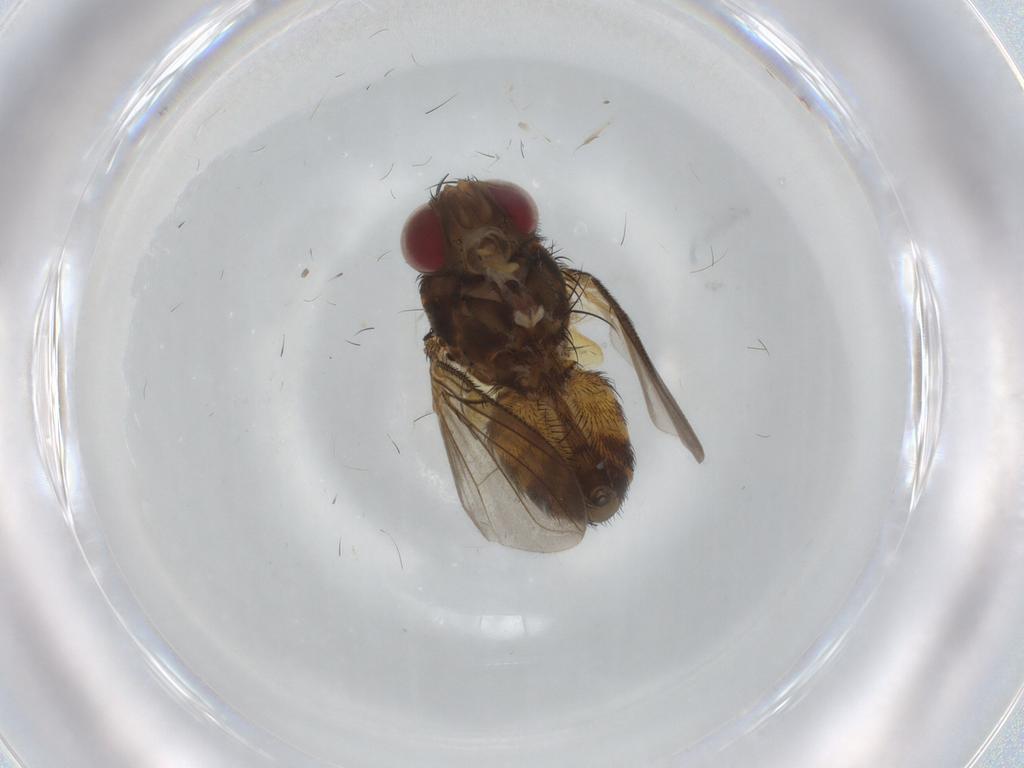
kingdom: Animalia
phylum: Arthropoda
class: Insecta
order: Diptera
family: Tachinidae
